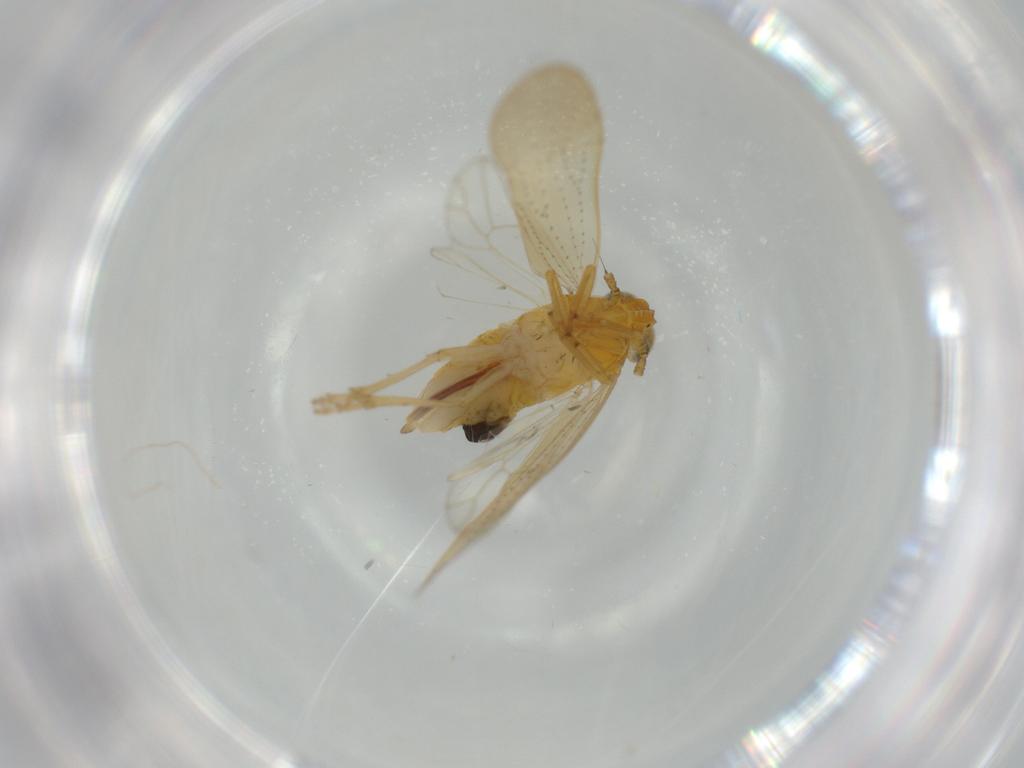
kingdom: Animalia
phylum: Arthropoda
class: Insecta
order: Hemiptera
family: Delphacidae
